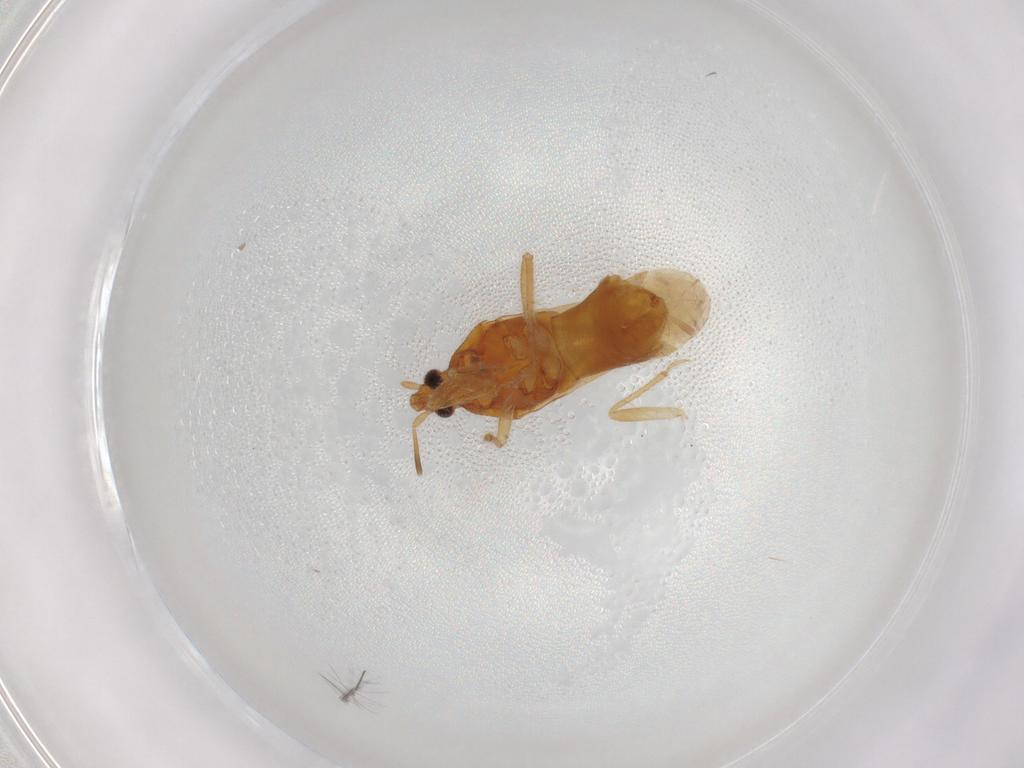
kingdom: Animalia
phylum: Arthropoda
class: Insecta
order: Hemiptera
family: Lasiochilidae
